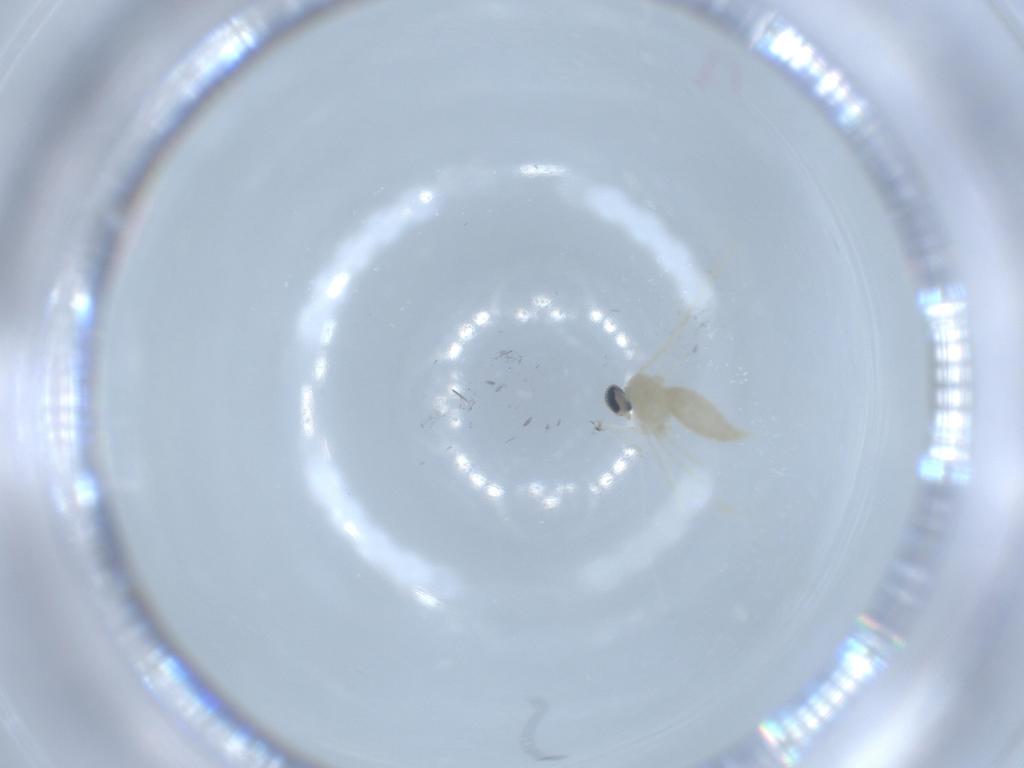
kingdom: Animalia
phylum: Arthropoda
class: Insecta
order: Diptera
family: Cecidomyiidae
